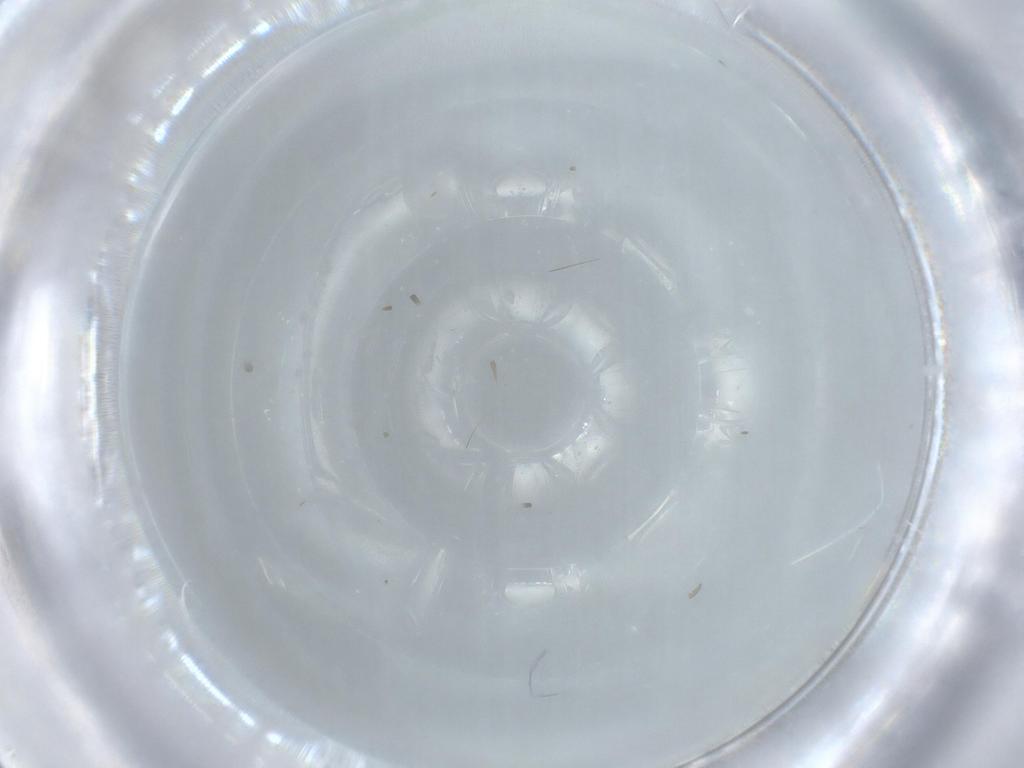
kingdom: Animalia
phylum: Arthropoda
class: Insecta
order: Diptera
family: Cecidomyiidae
